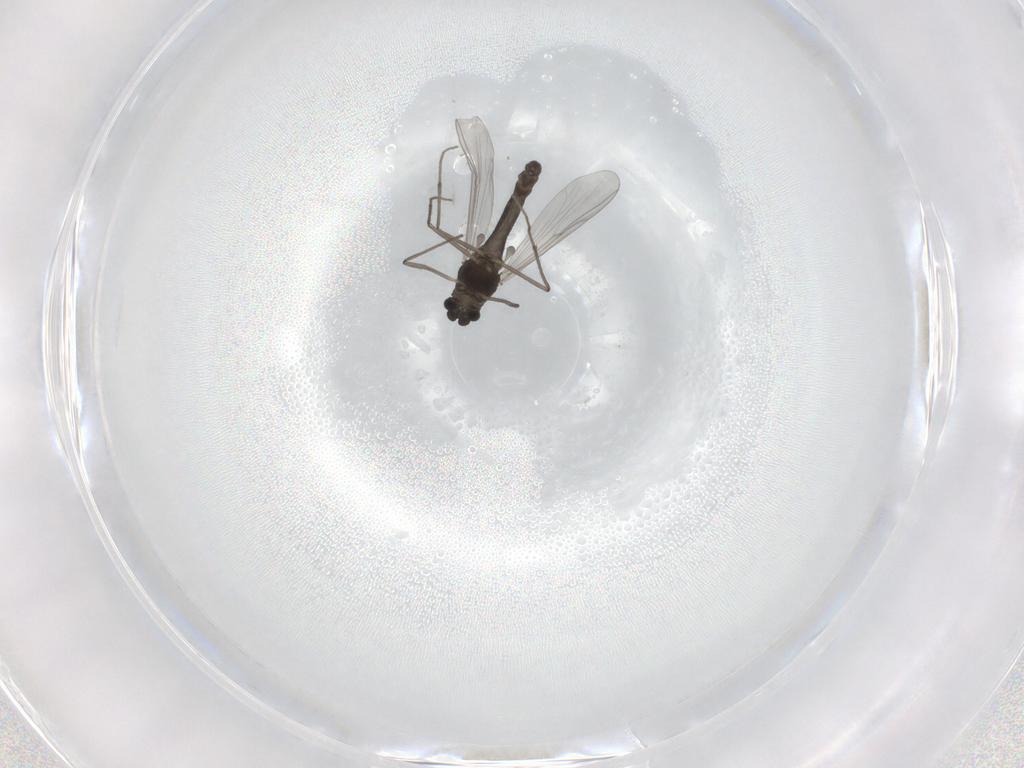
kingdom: Animalia
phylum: Arthropoda
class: Insecta
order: Diptera
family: Chironomidae
